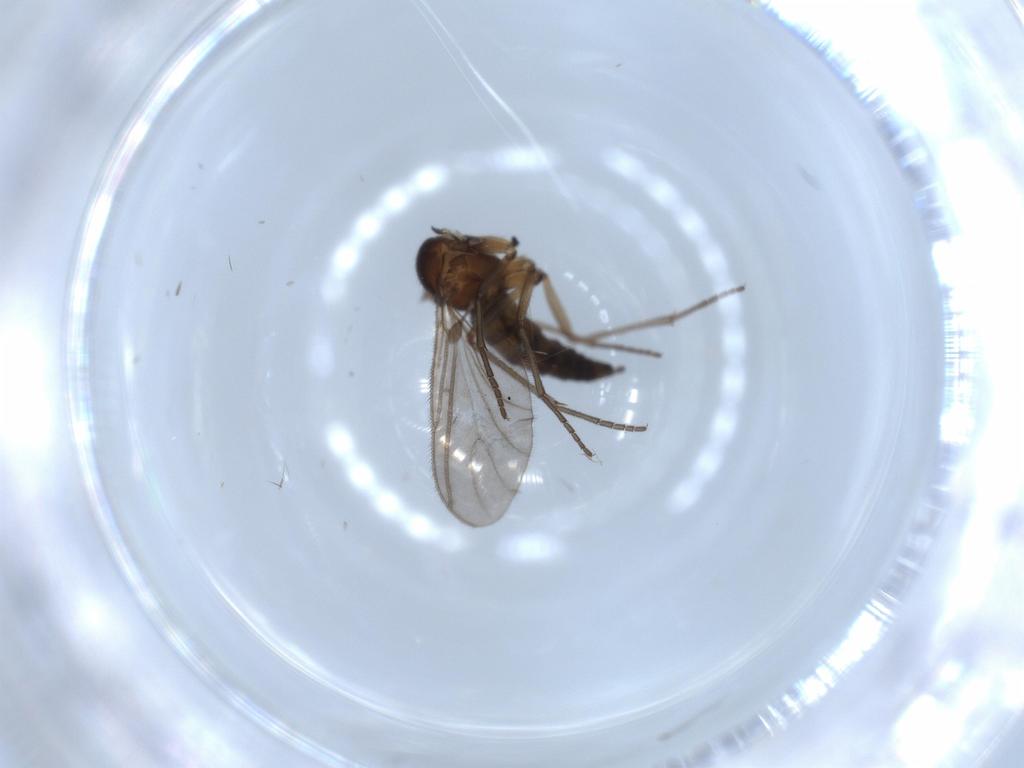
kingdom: Animalia
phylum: Arthropoda
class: Insecta
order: Diptera
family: Sciaridae
